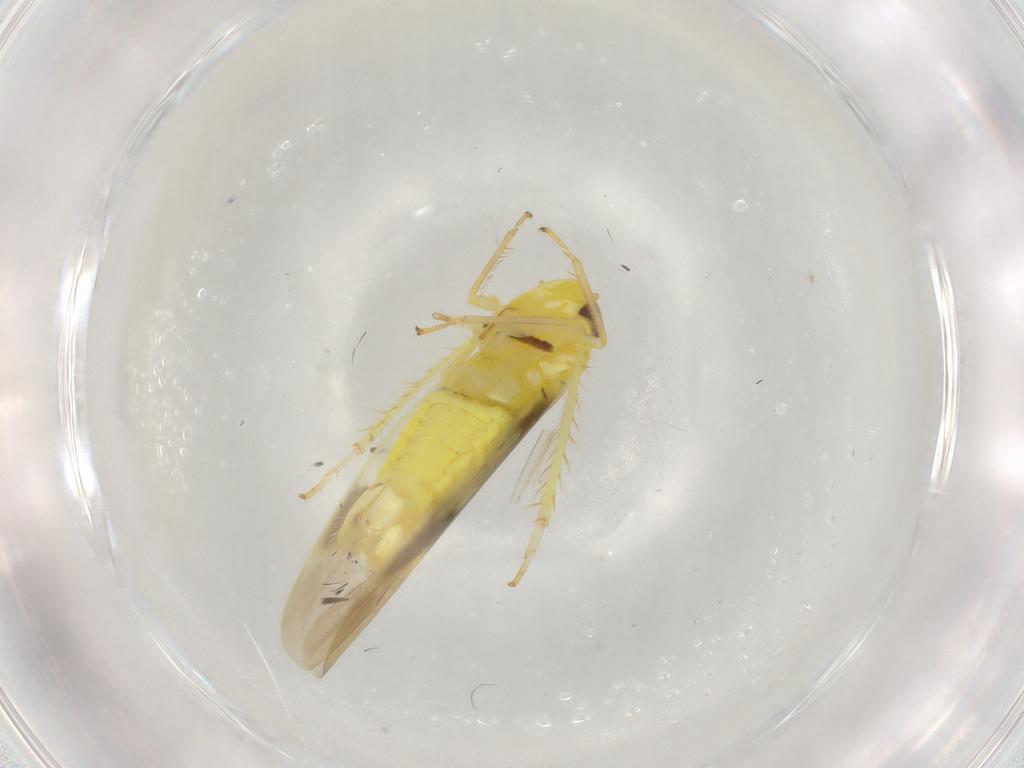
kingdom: Animalia
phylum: Arthropoda
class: Insecta
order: Hemiptera
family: Cicadellidae
